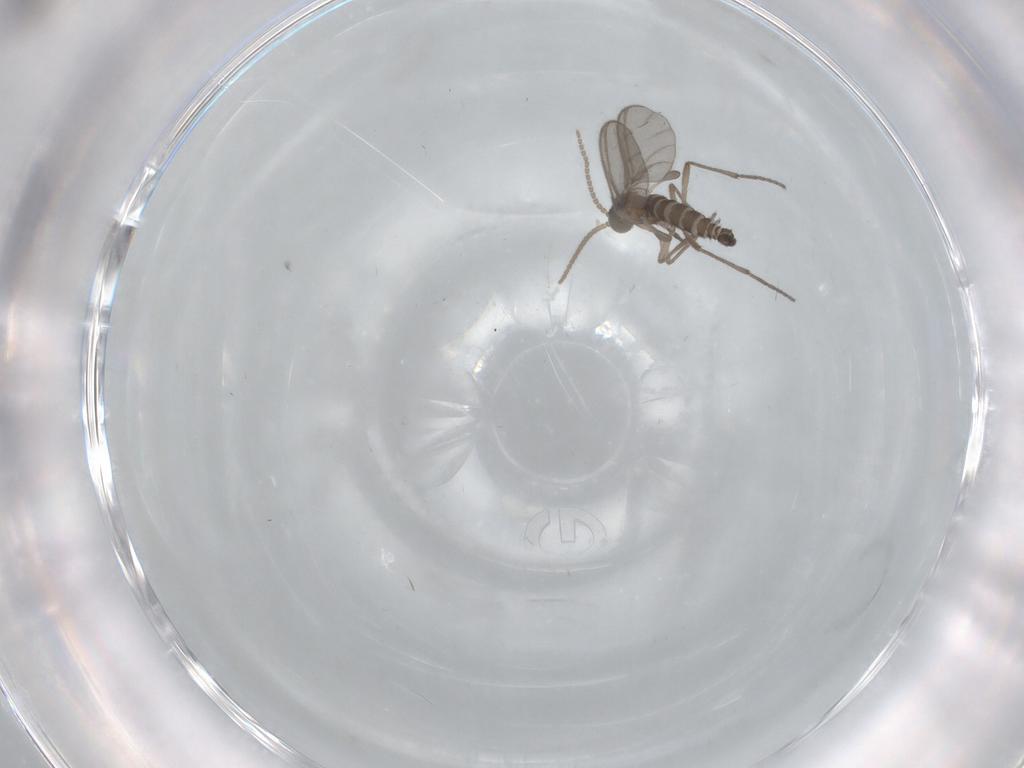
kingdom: Animalia
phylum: Arthropoda
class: Insecta
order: Diptera
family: Sciaridae
